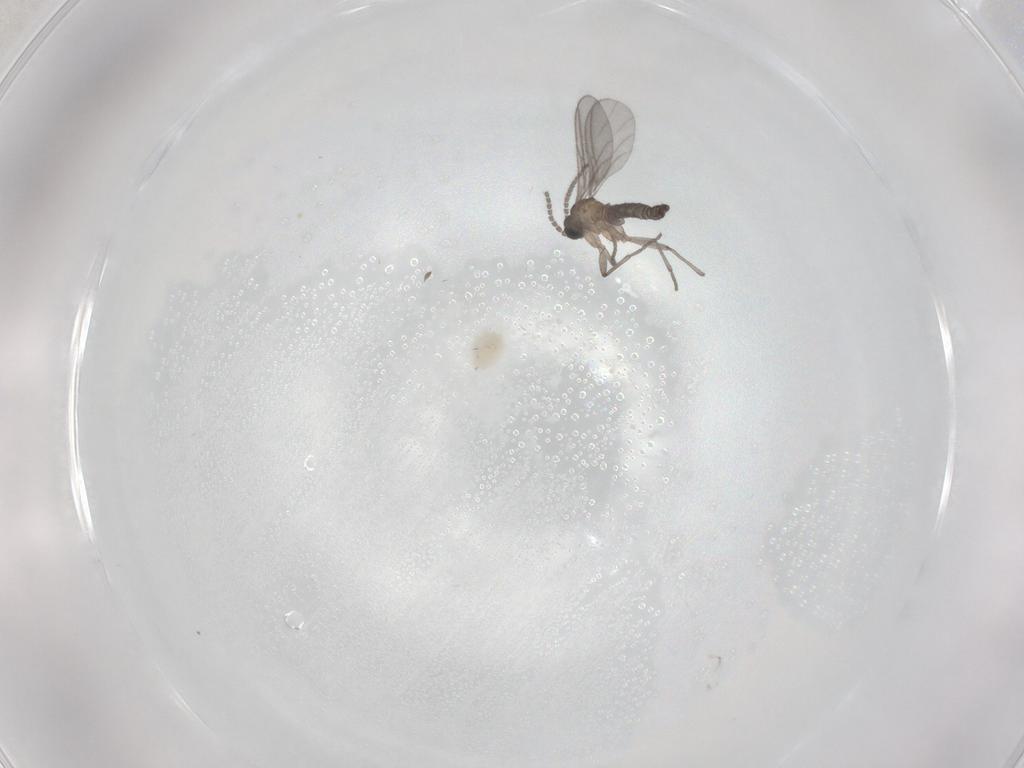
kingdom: Animalia
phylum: Arthropoda
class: Insecta
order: Diptera
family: Sciaridae
